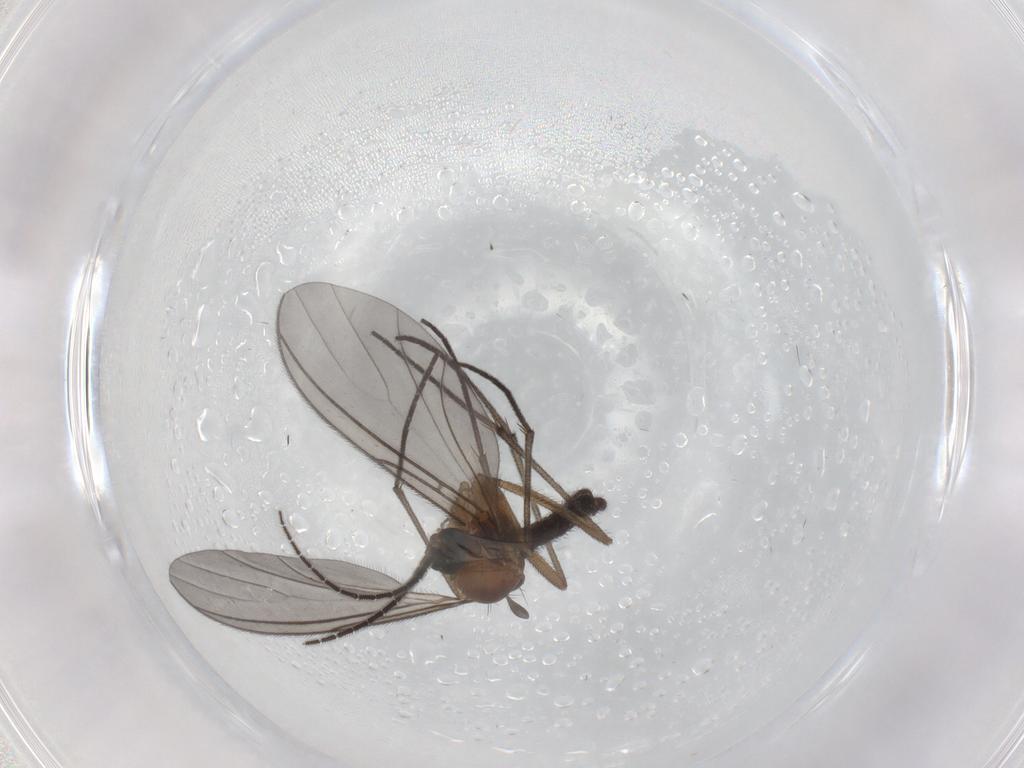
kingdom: Animalia
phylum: Arthropoda
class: Insecta
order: Diptera
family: Sciaridae
